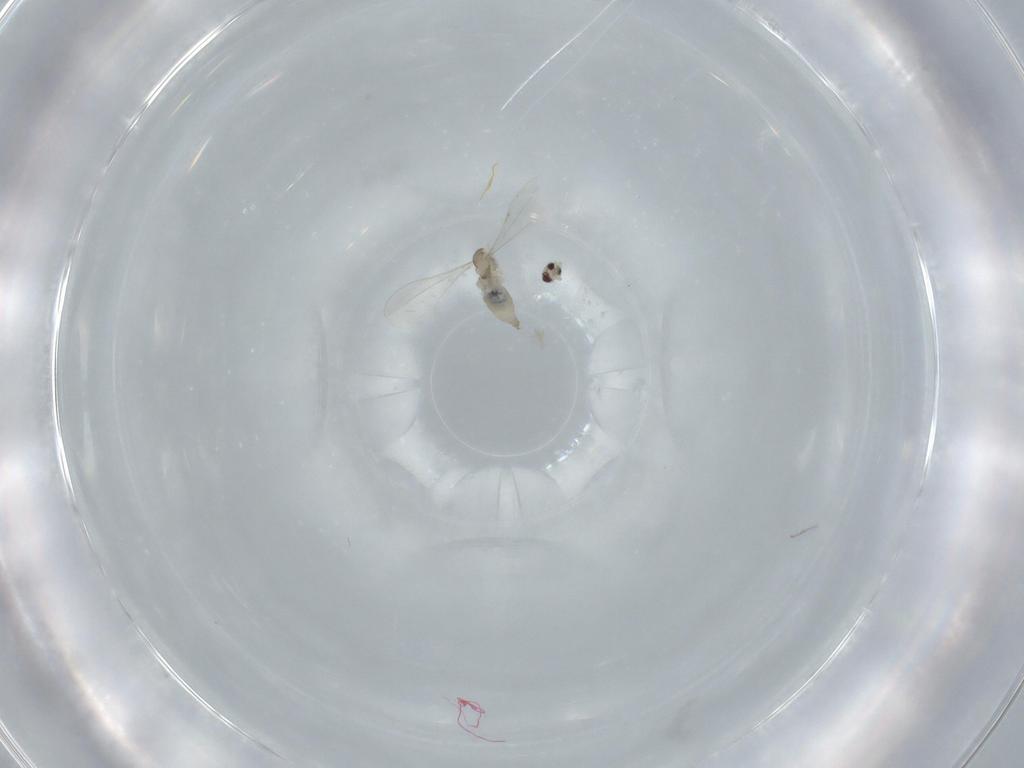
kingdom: Animalia
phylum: Arthropoda
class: Insecta
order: Diptera
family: Cecidomyiidae
